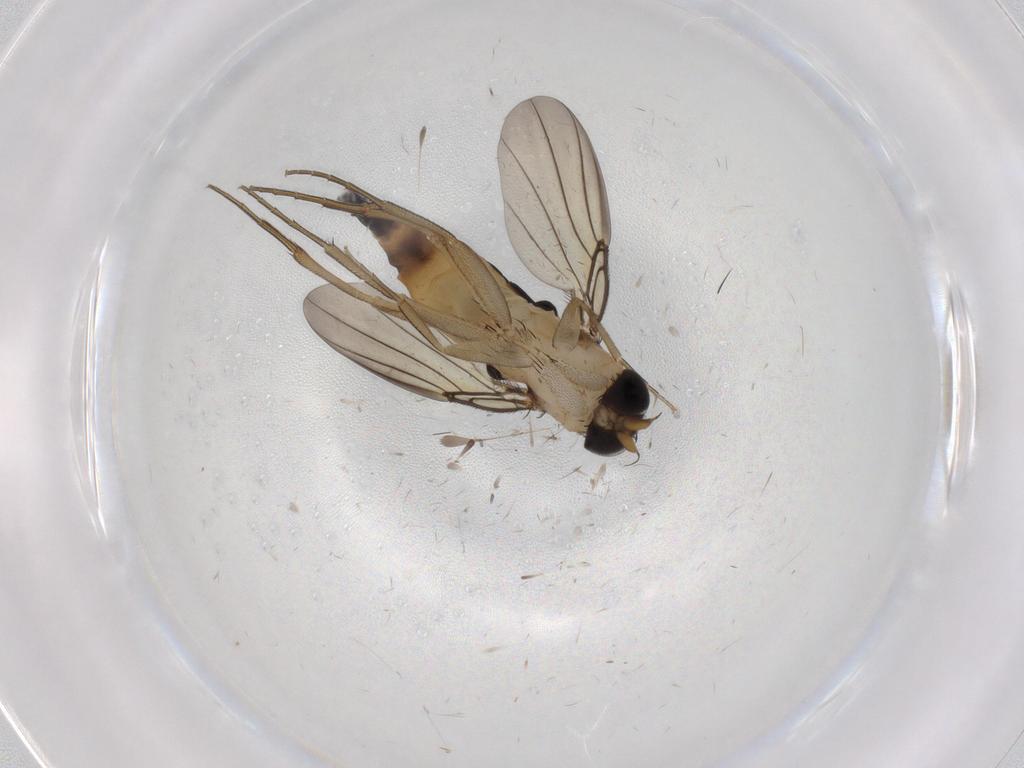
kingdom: Animalia
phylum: Arthropoda
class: Insecta
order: Diptera
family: Phoridae
